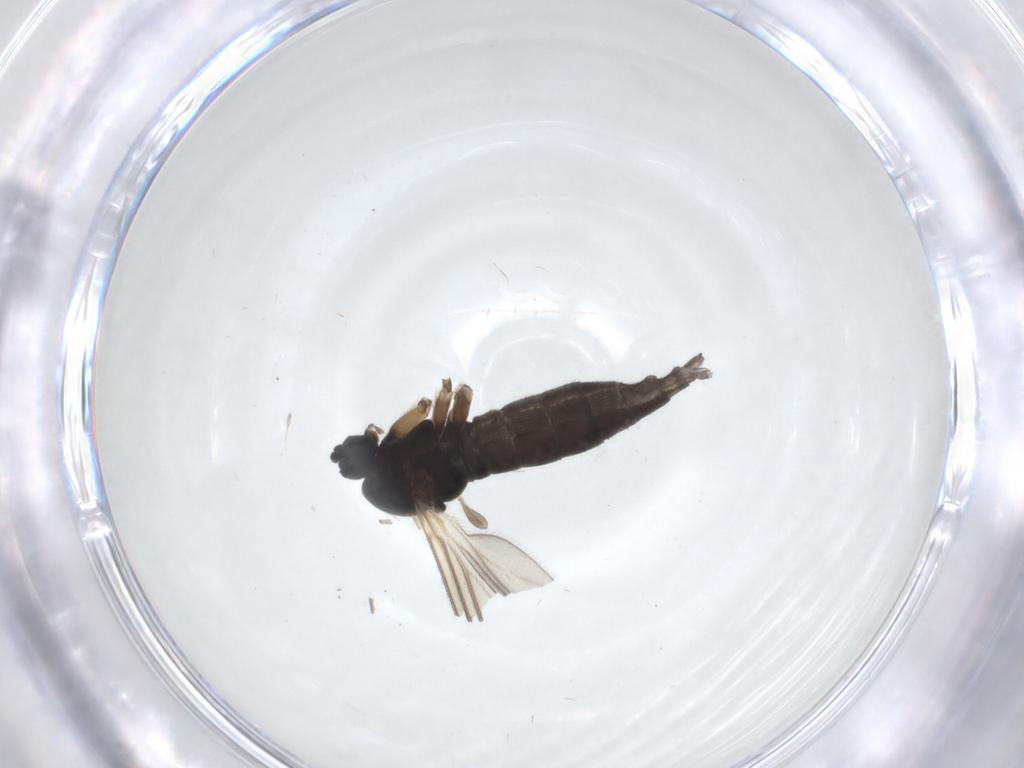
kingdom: Animalia
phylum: Arthropoda
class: Insecta
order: Diptera
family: Sciaridae
